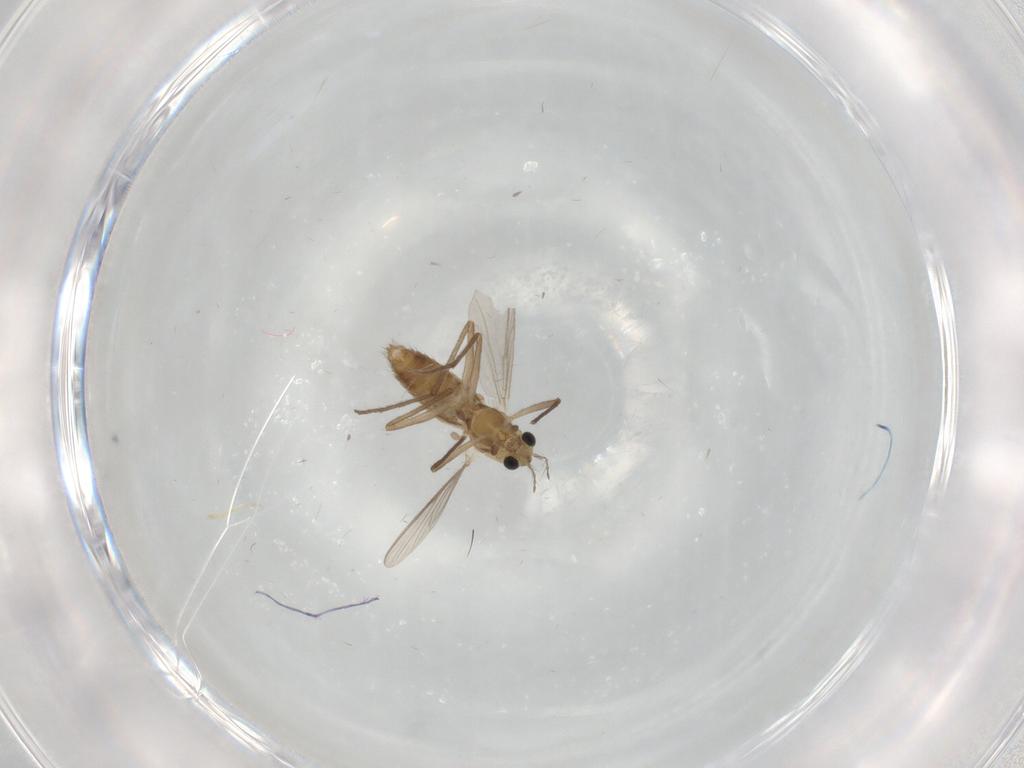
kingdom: Animalia
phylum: Arthropoda
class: Insecta
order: Diptera
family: Chironomidae
